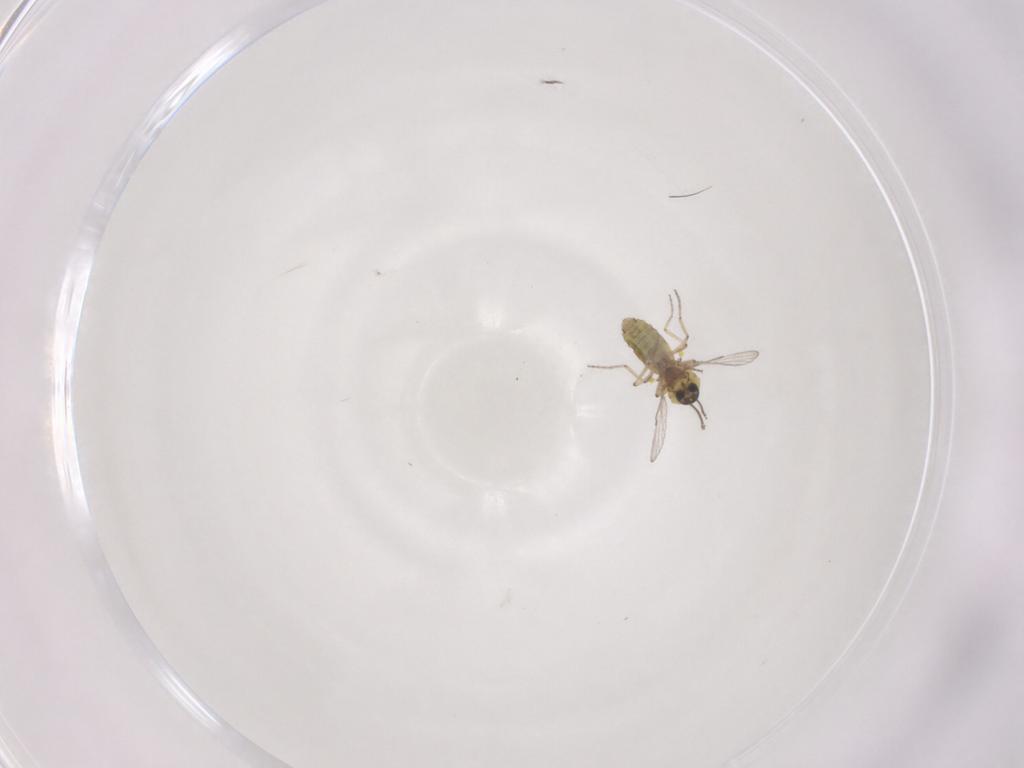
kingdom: Animalia
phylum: Arthropoda
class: Insecta
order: Diptera
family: Ceratopogonidae
